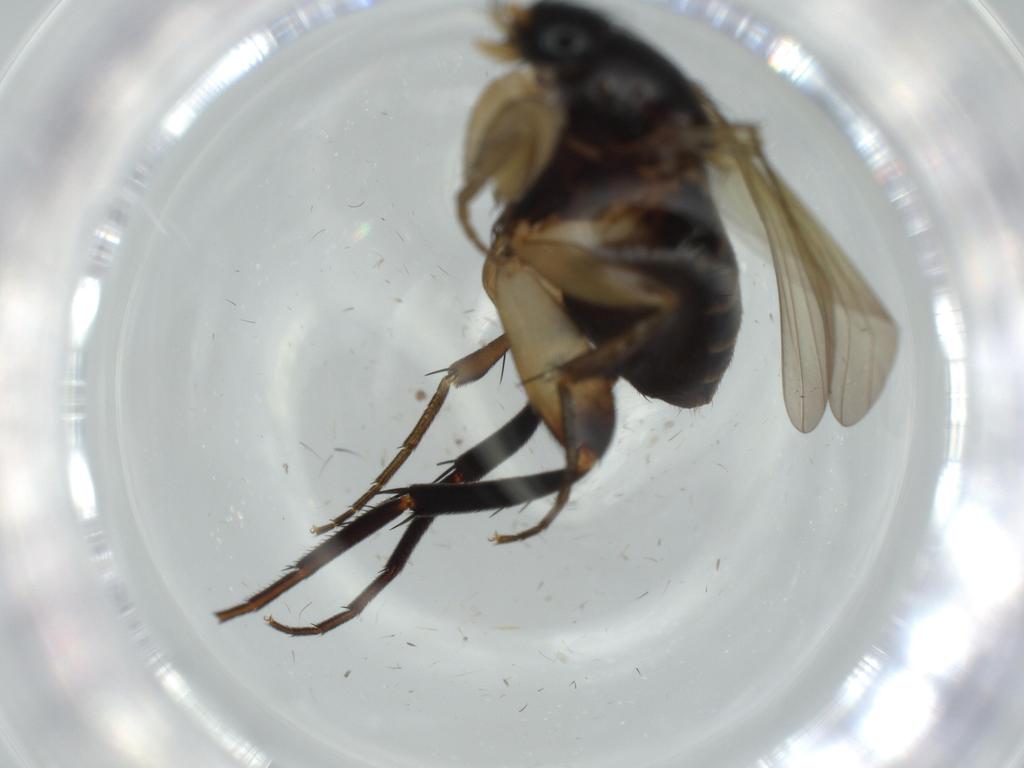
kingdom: Animalia
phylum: Arthropoda
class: Insecta
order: Diptera
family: Phoridae
